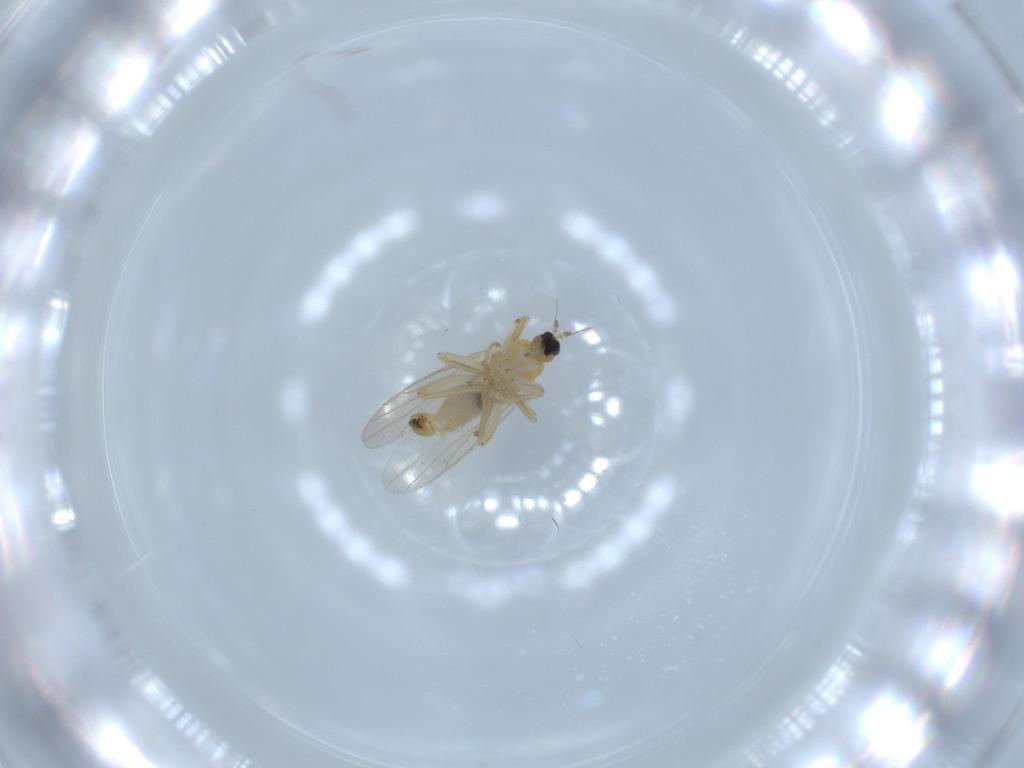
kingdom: Animalia
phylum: Arthropoda
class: Insecta
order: Diptera
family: Hybotidae
